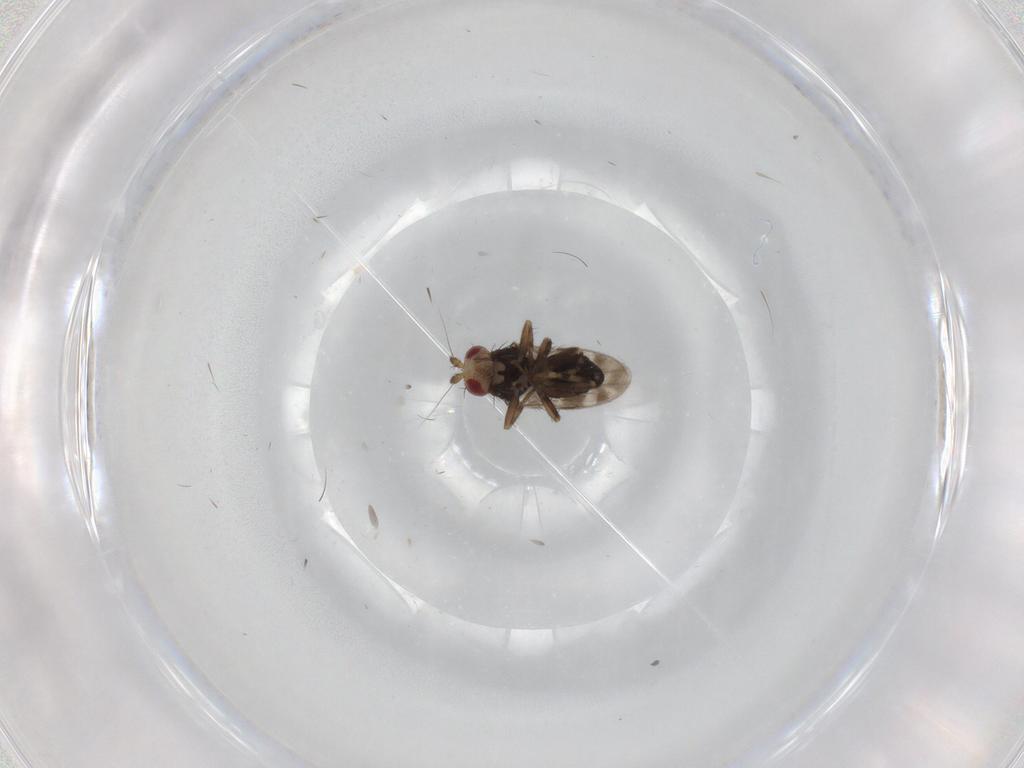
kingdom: Animalia
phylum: Arthropoda
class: Insecta
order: Diptera
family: Sphaeroceridae
